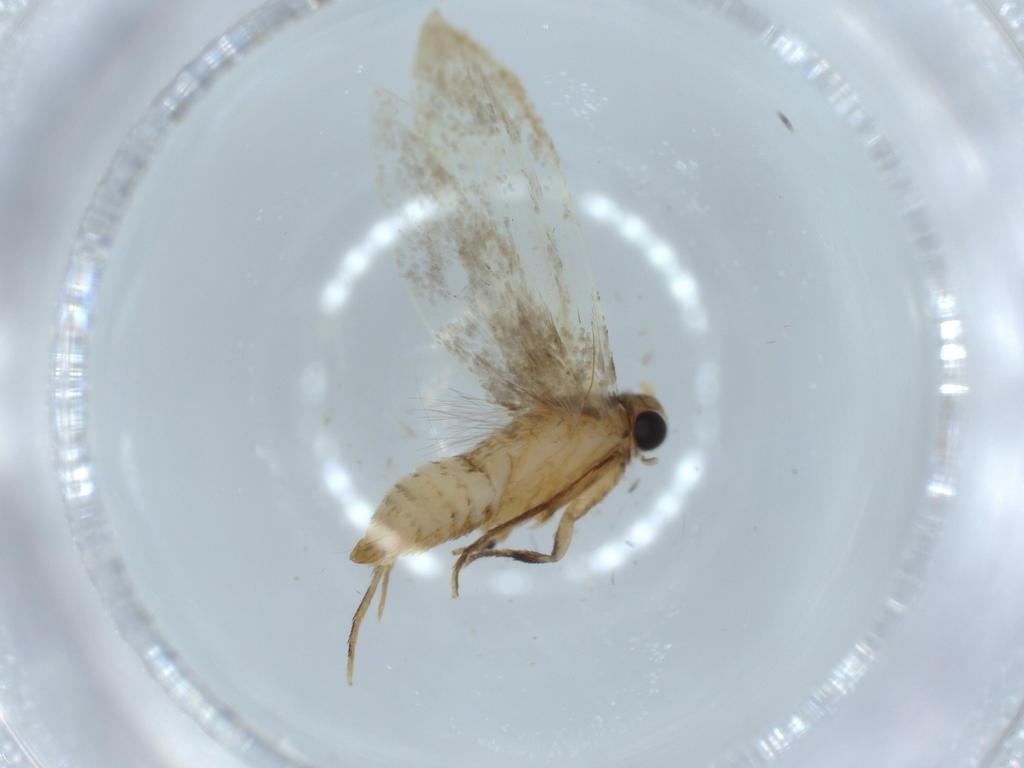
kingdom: Animalia
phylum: Arthropoda
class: Insecta
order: Lepidoptera
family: Tineidae
